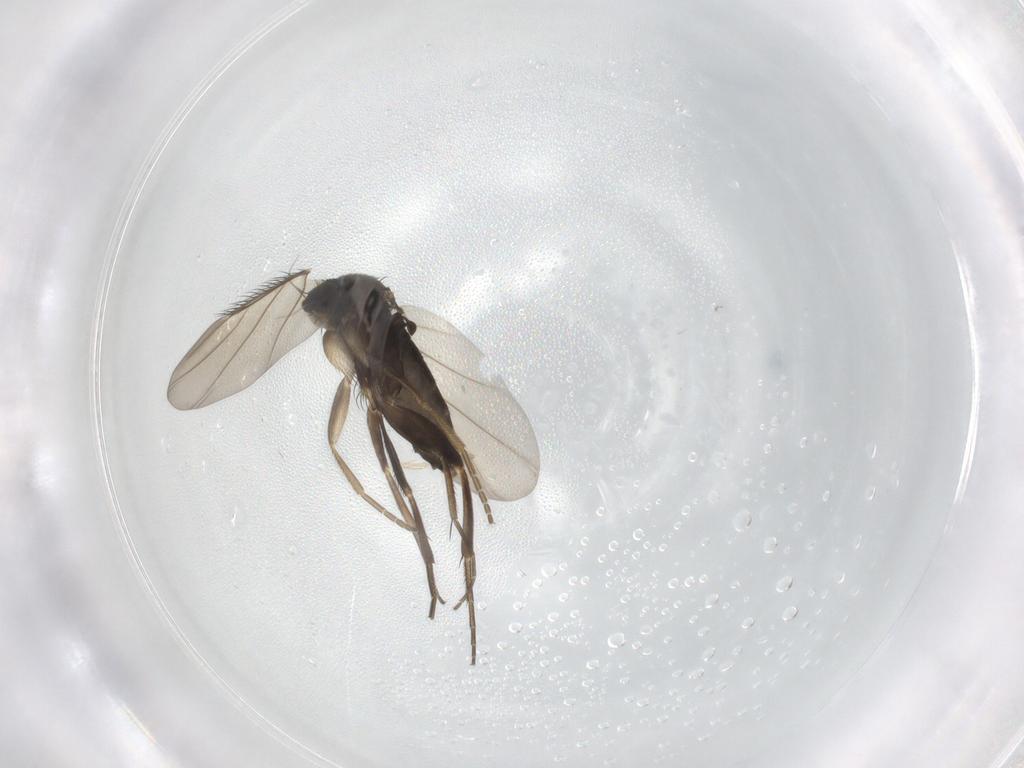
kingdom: Animalia
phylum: Arthropoda
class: Insecta
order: Diptera
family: Phoridae
